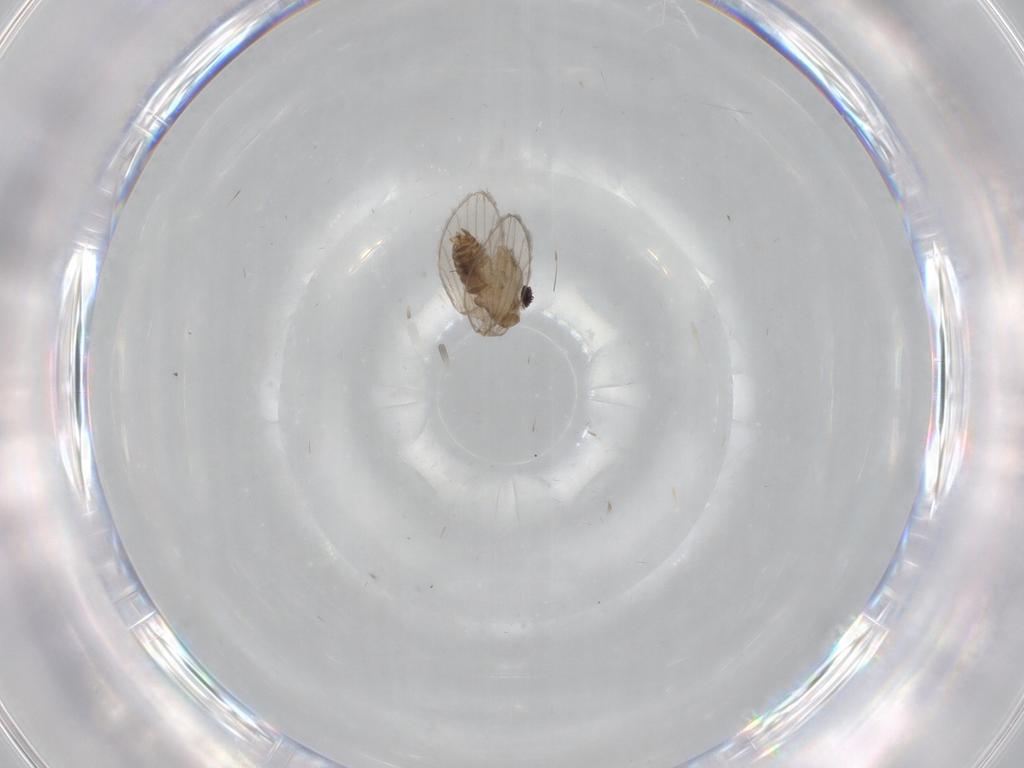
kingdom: Animalia
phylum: Arthropoda
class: Insecta
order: Diptera
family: Psychodidae
